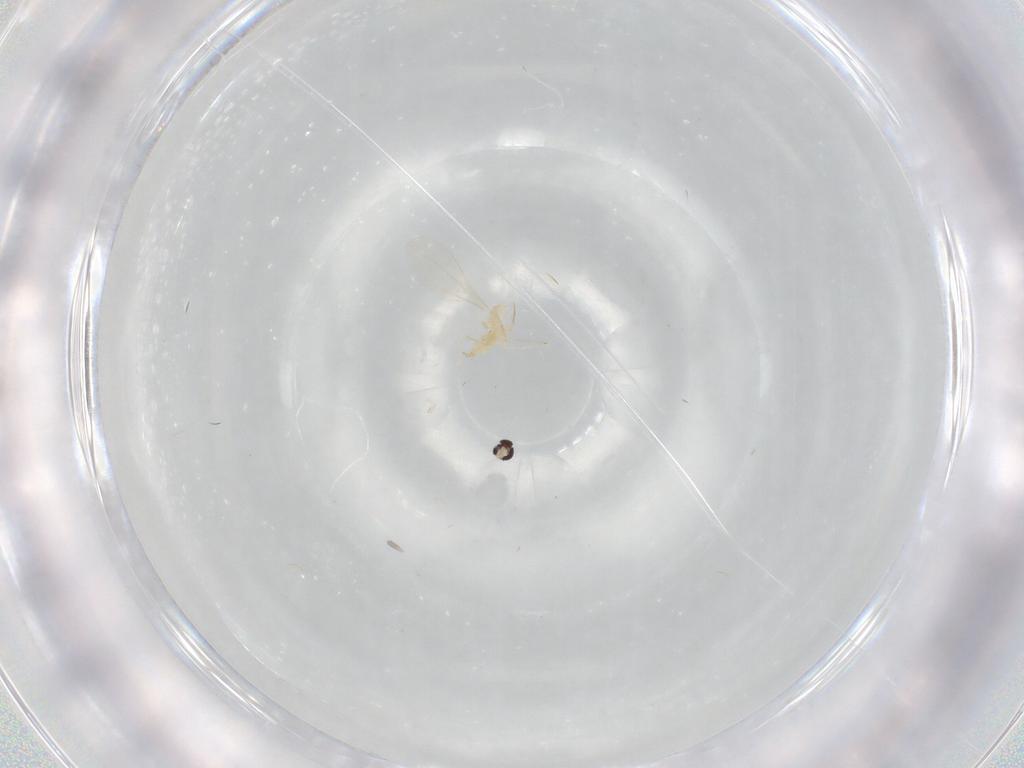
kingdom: Animalia
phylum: Arthropoda
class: Insecta
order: Diptera
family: Cecidomyiidae
